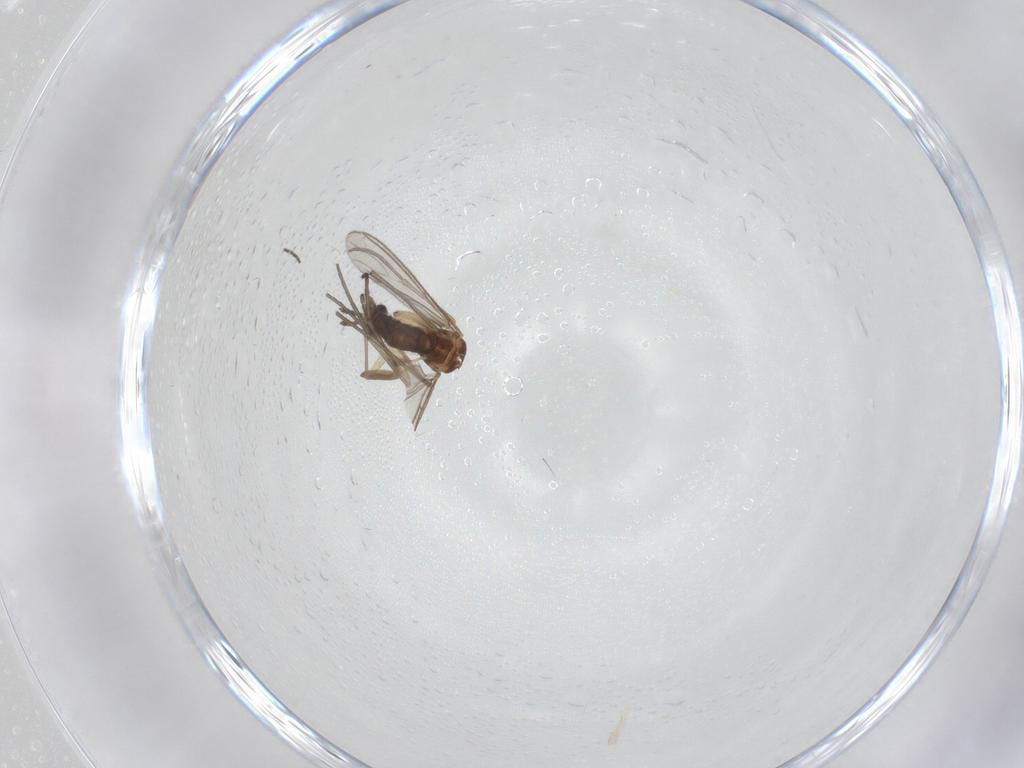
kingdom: Animalia
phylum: Arthropoda
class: Insecta
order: Diptera
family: Sciaridae
